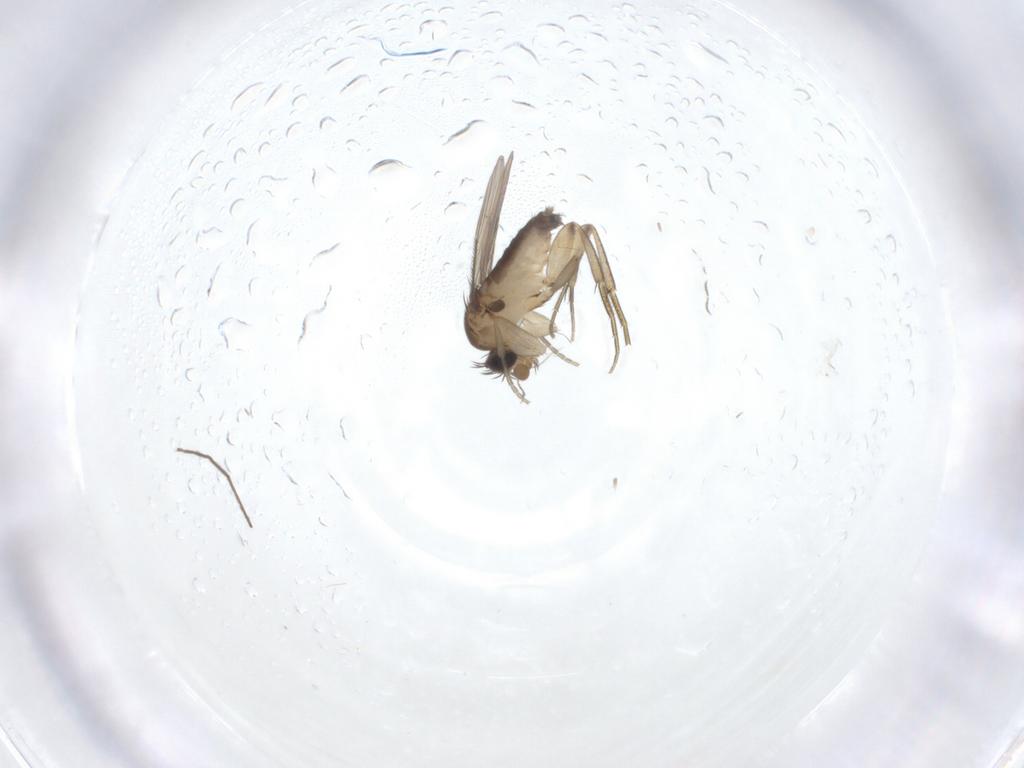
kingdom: Animalia
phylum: Arthropoda
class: Insecta
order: Diptera
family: Phoridae
